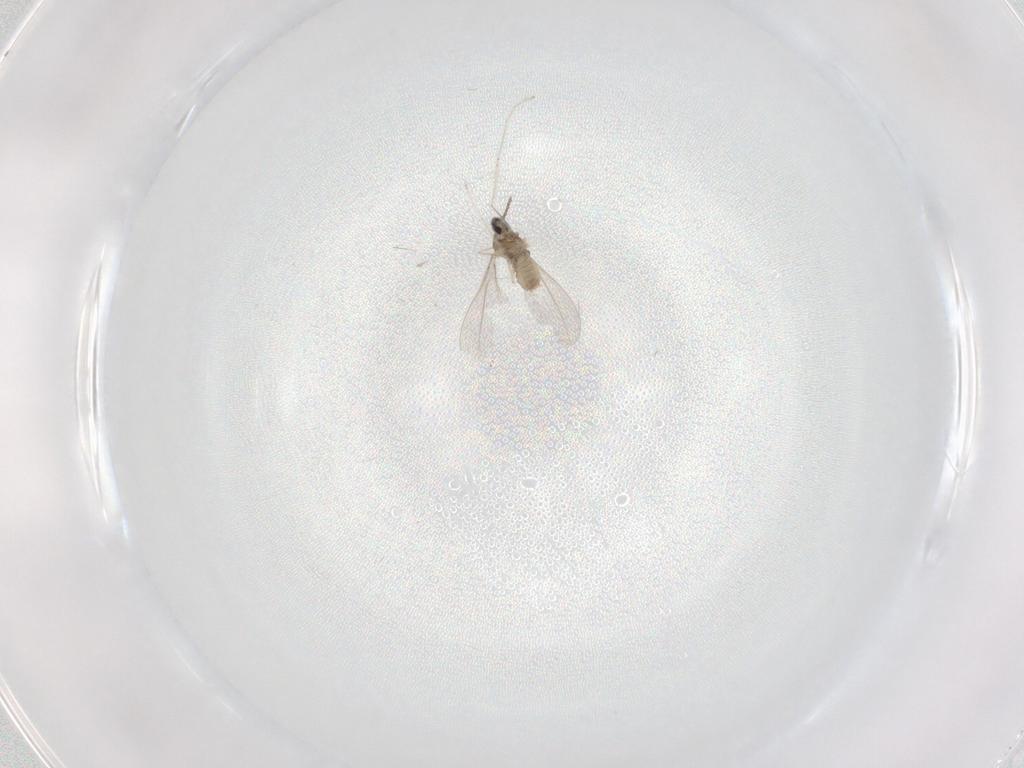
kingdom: Animalia
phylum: Arthropoda
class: Insecta
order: Diptera
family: Psychodidae
